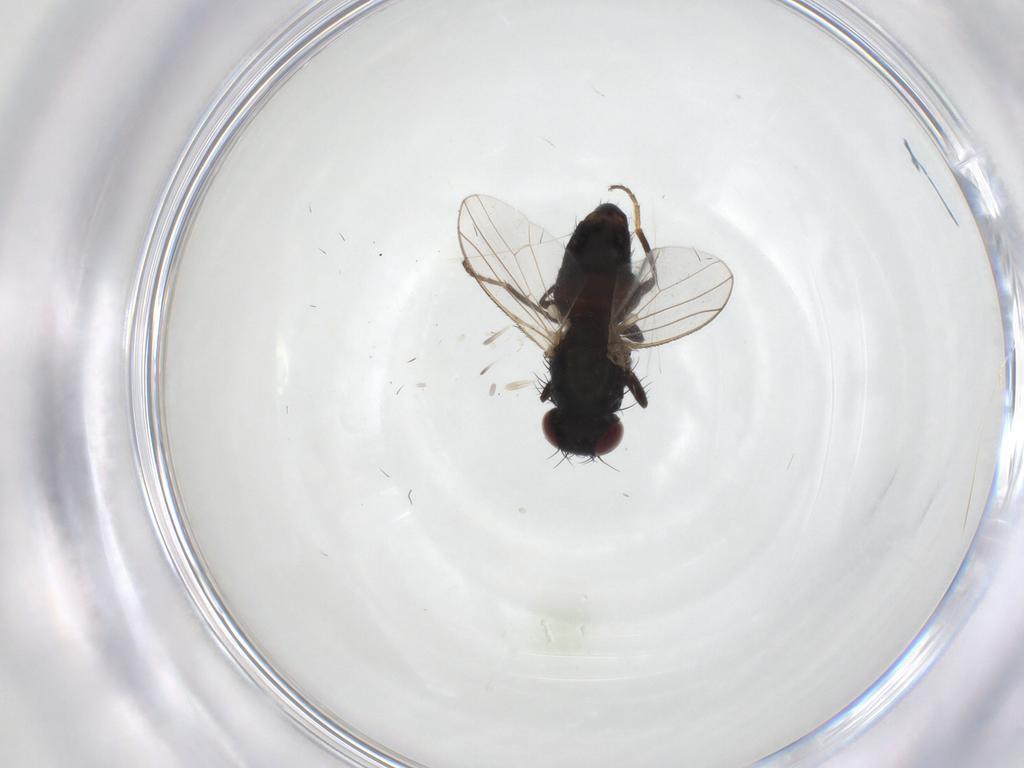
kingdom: Animalia
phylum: Arthropoda
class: Insecta
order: Diptera
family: Carnidae
